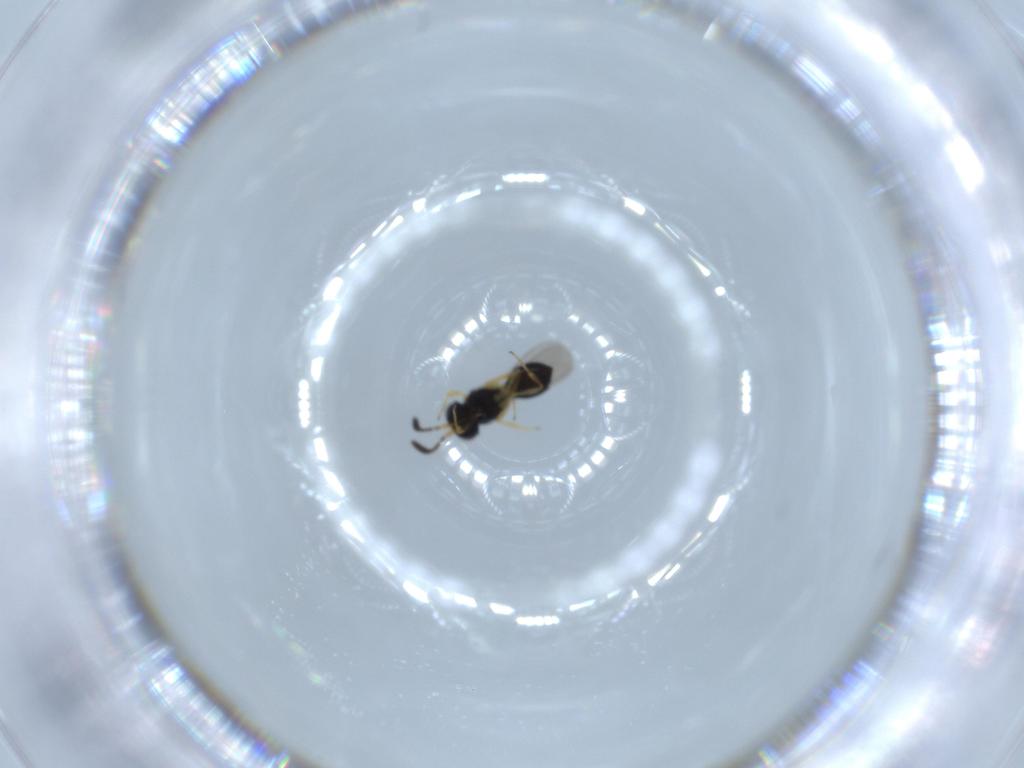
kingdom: Animalia
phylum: Arthropoda
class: Insecta
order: Hymenoptera
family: Scelionidae
